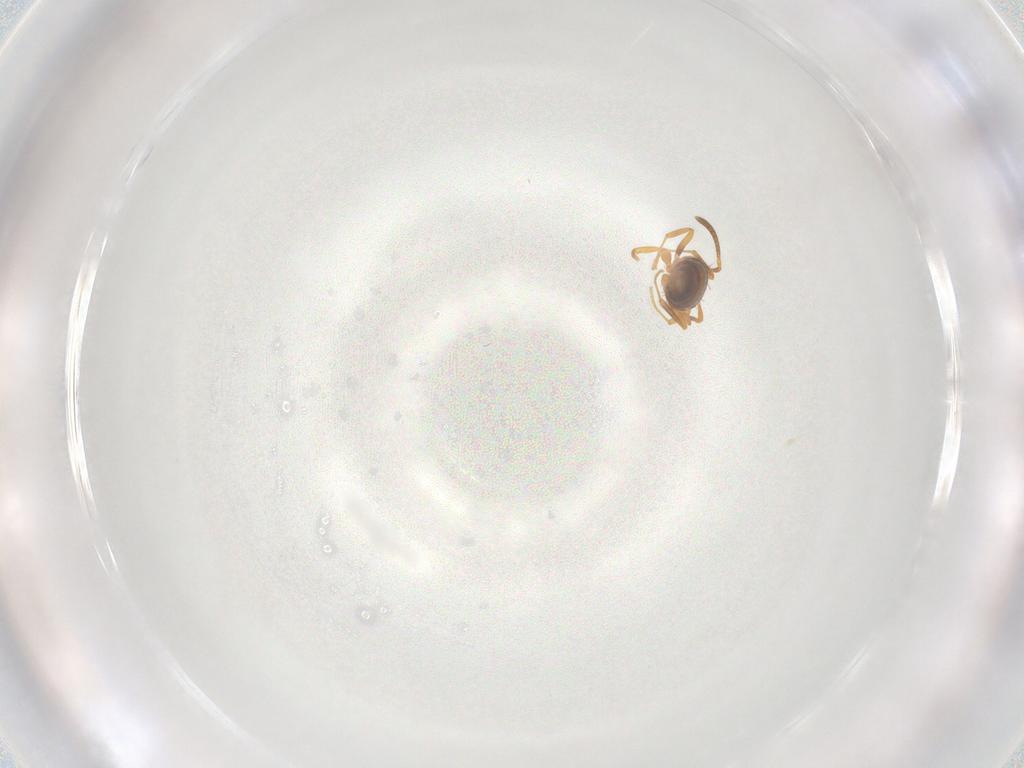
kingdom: Animalia
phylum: Arthropoda
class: Insecta
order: Hymenoptera
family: Formicidae
